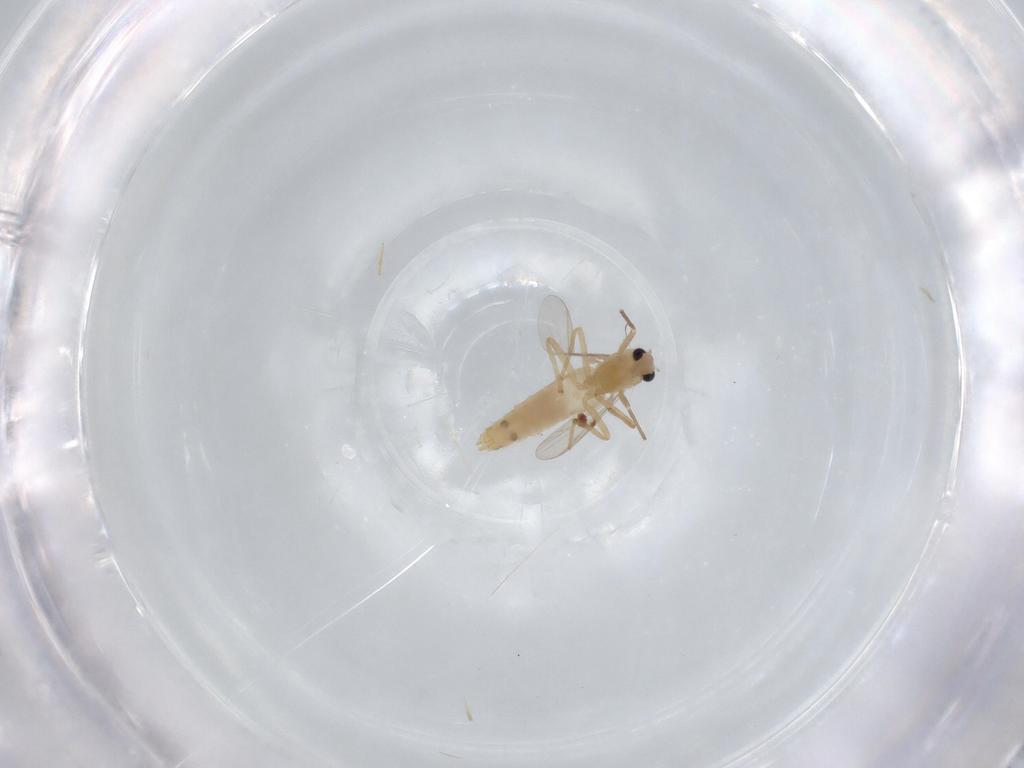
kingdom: Animalia
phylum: Arthropoda
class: Insecta
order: Diptera
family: Chironomidae
